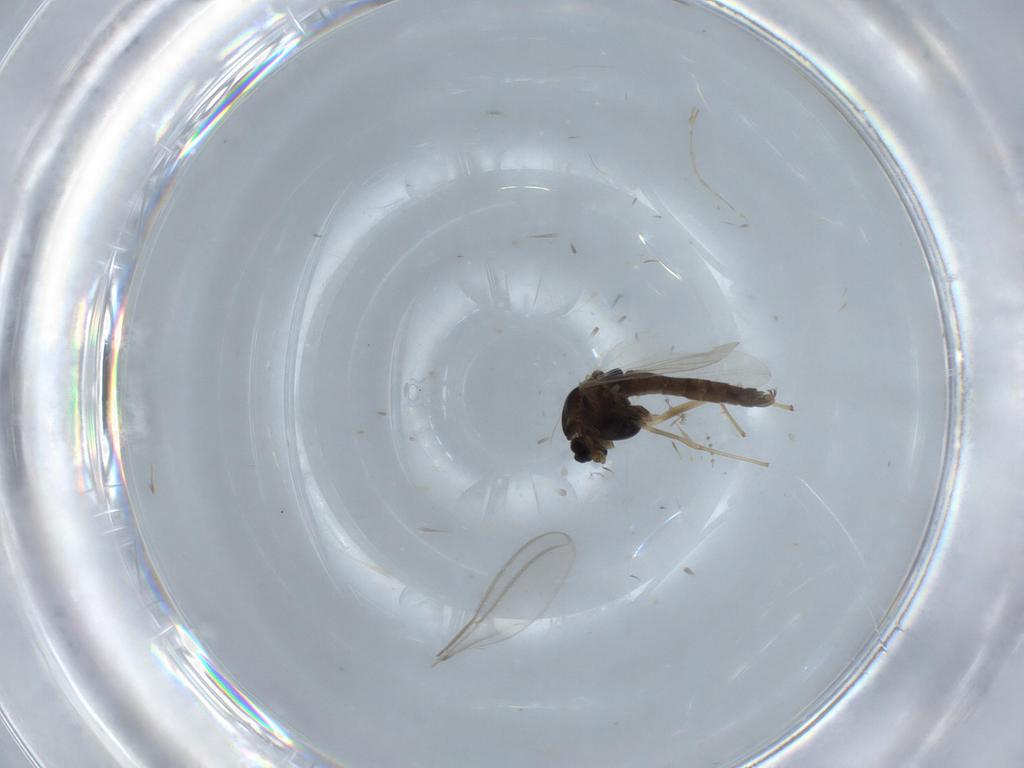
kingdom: Animalia
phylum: Arthropoda
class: Insecta
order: Diptera
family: Chironomidae
